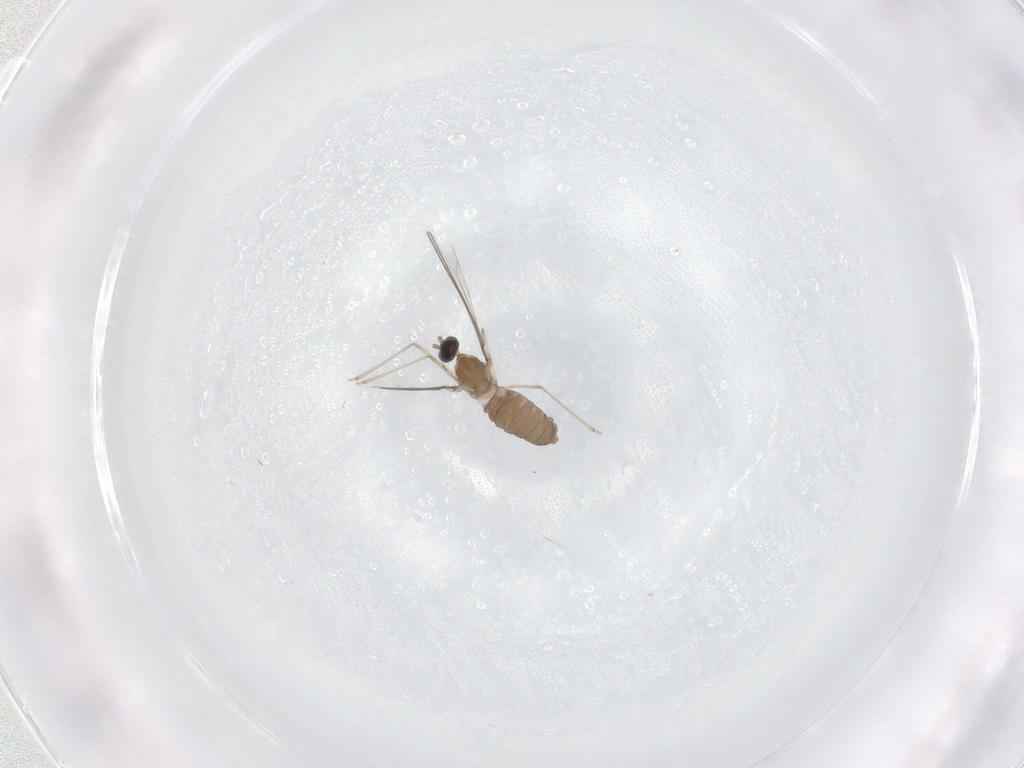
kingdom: Animalia
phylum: Arthropoda
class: Insecta
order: Diptera
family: Cecidomyiidae
